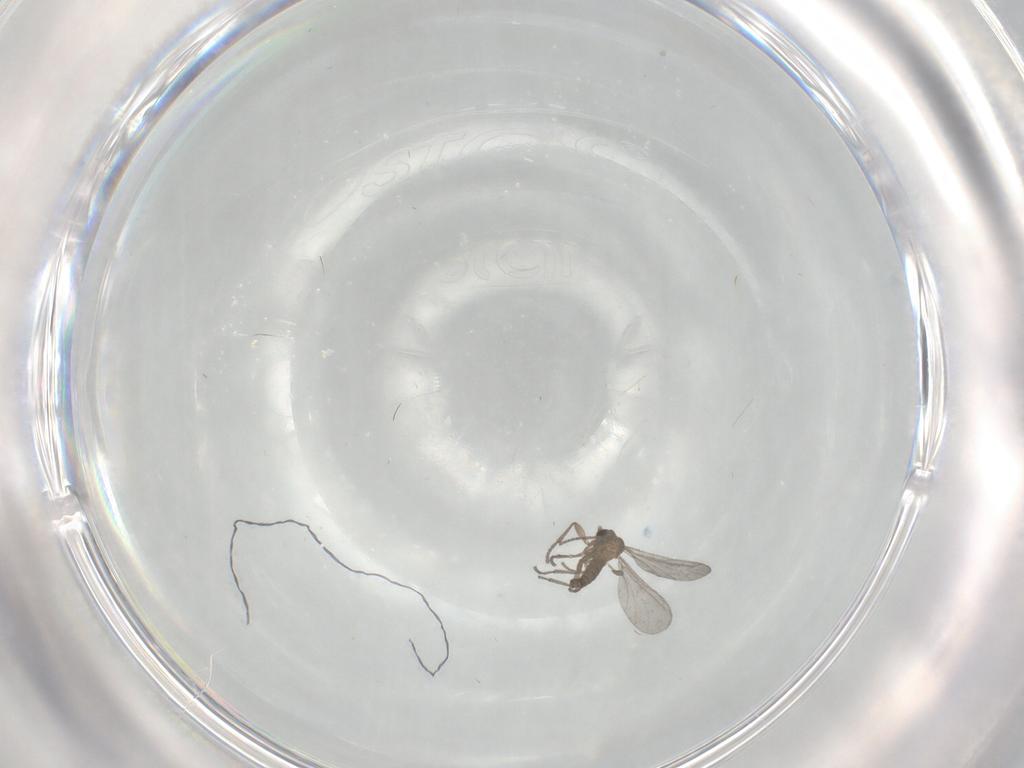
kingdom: Animalia
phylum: Arthropoda
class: Insecta
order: Diptera
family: Sciaridae
